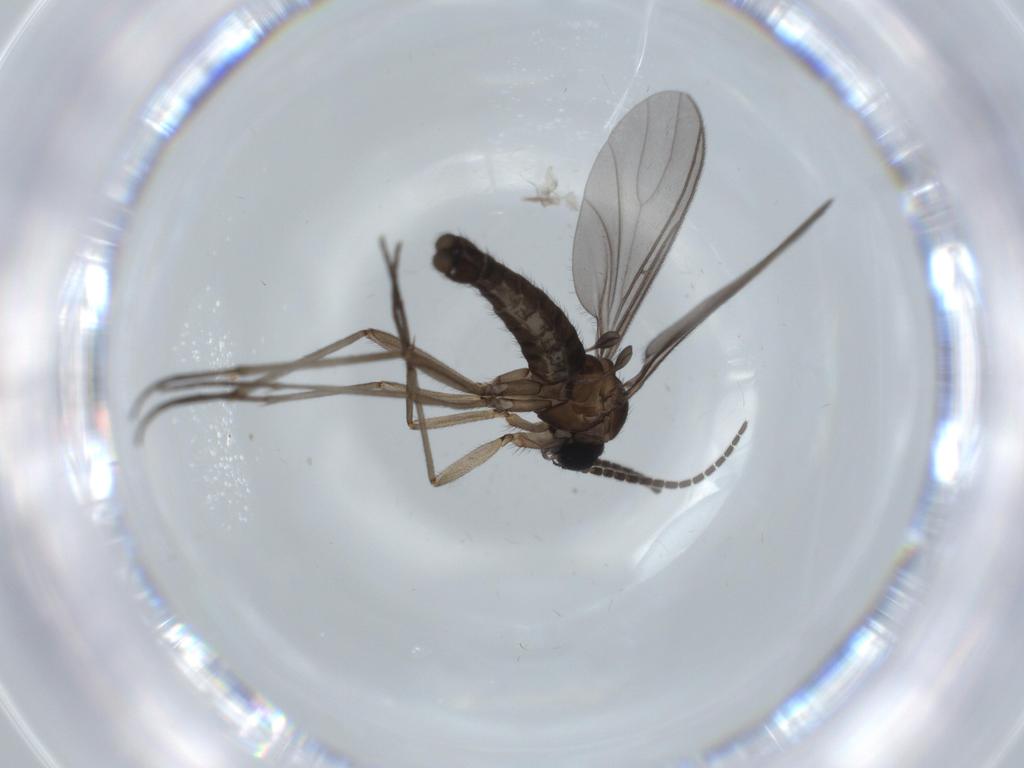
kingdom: Animalia
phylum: Arthropoda
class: Insecta
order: Diptera
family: Sciaridae
